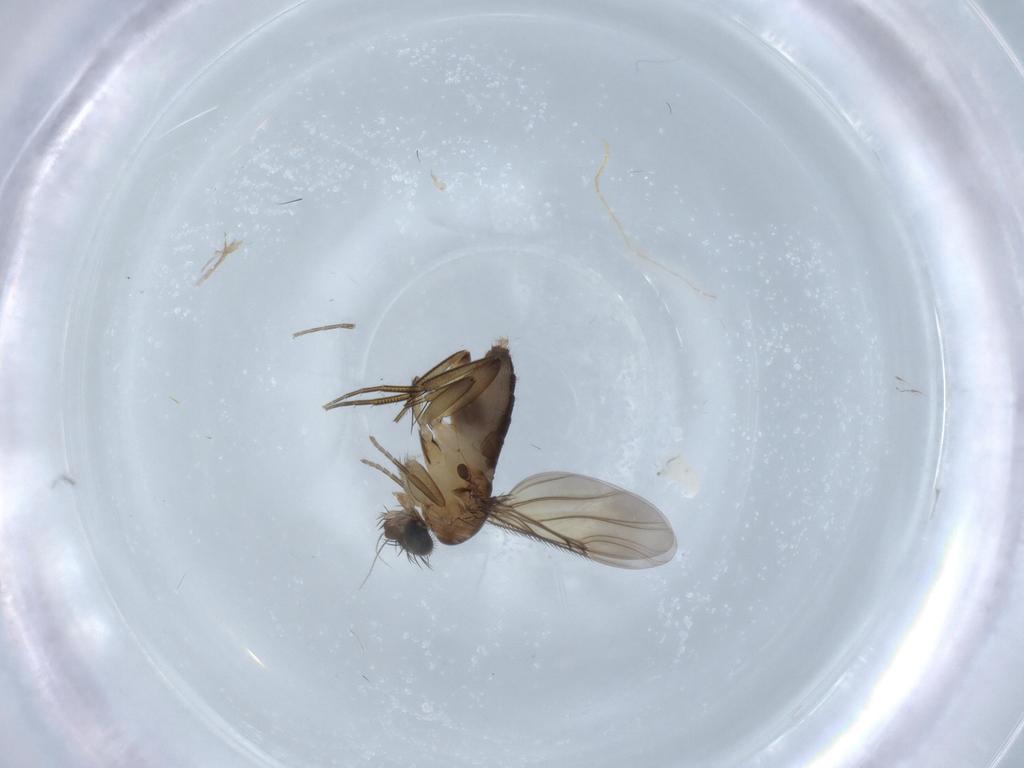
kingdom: Animalia
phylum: Arthropoda
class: Insecta
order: Diptera
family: Phoridae
